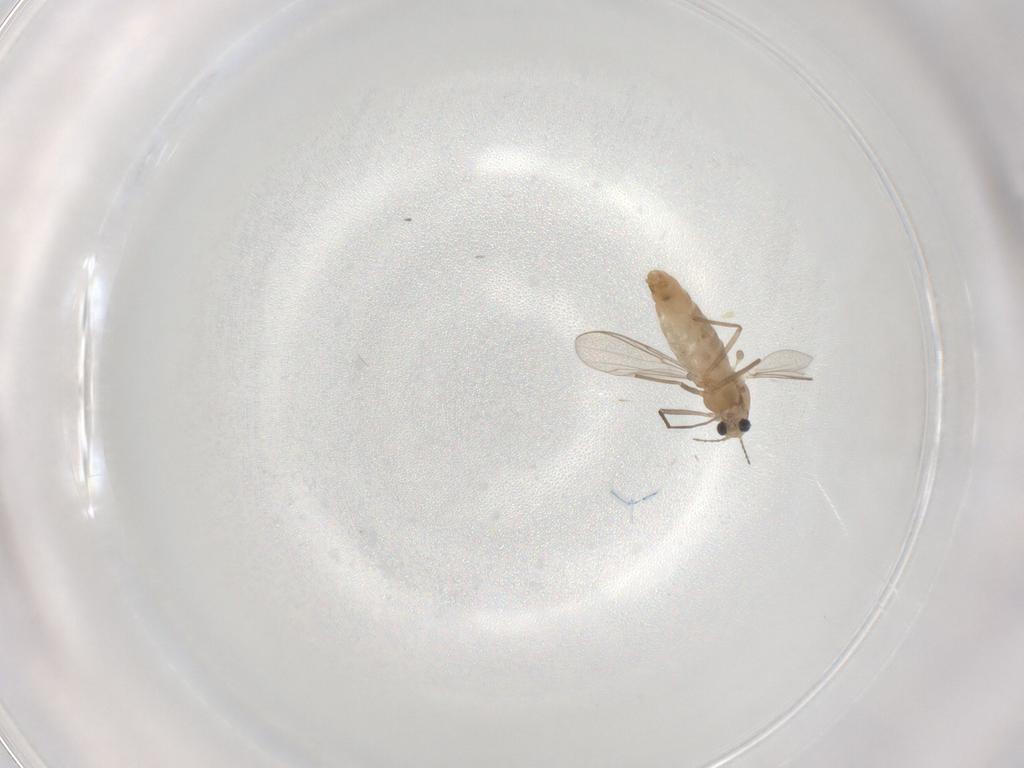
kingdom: Animalia
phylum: Arthropoda
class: Insecta
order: Diptera
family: Chironomidae
